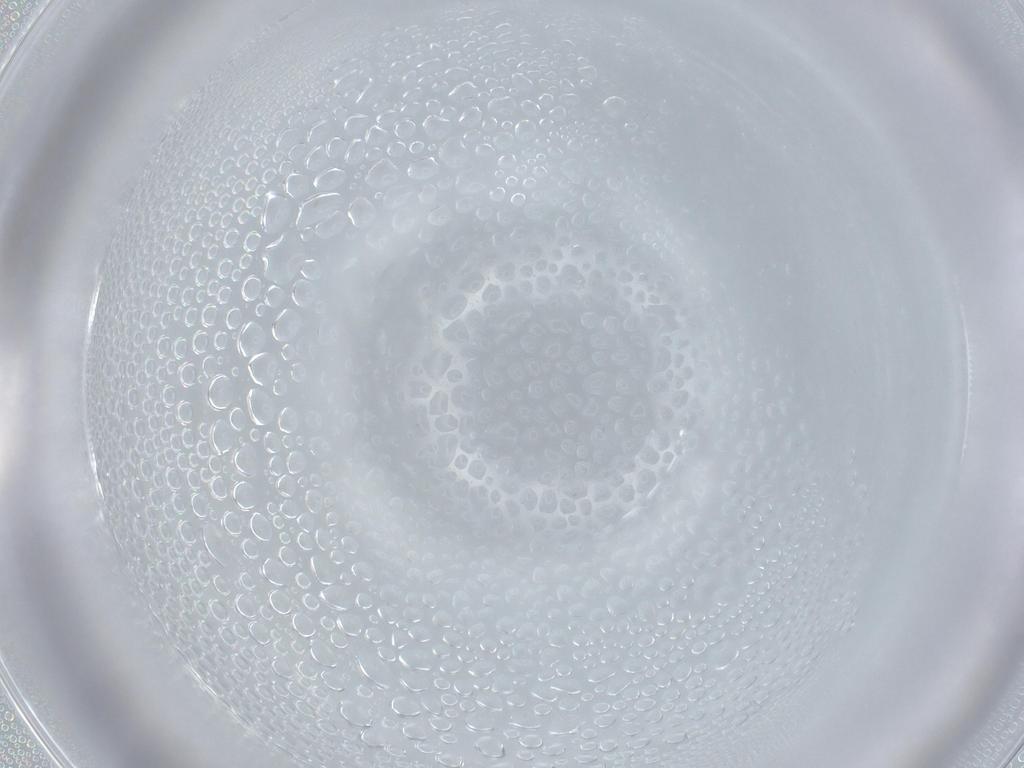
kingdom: Animalia
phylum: Arthropoda
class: Insecta
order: Diptera
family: Cecidomyiidae
